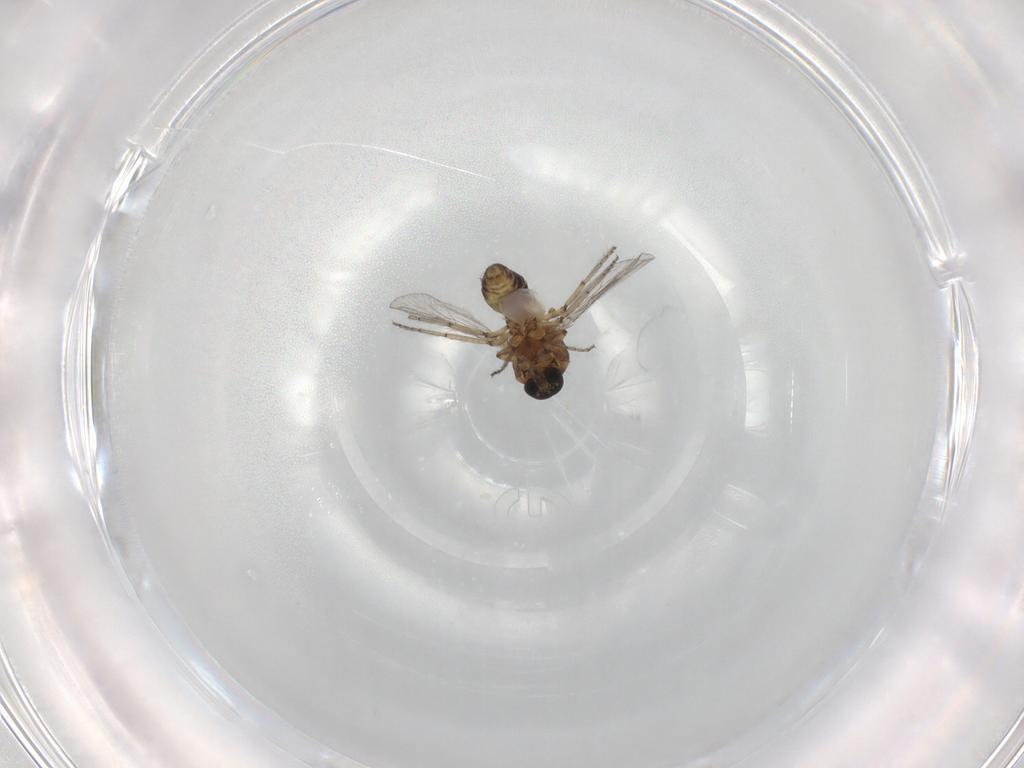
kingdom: Animalia
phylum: Arthropoda
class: Insecta
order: Diptera
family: Ceratopogonidae
